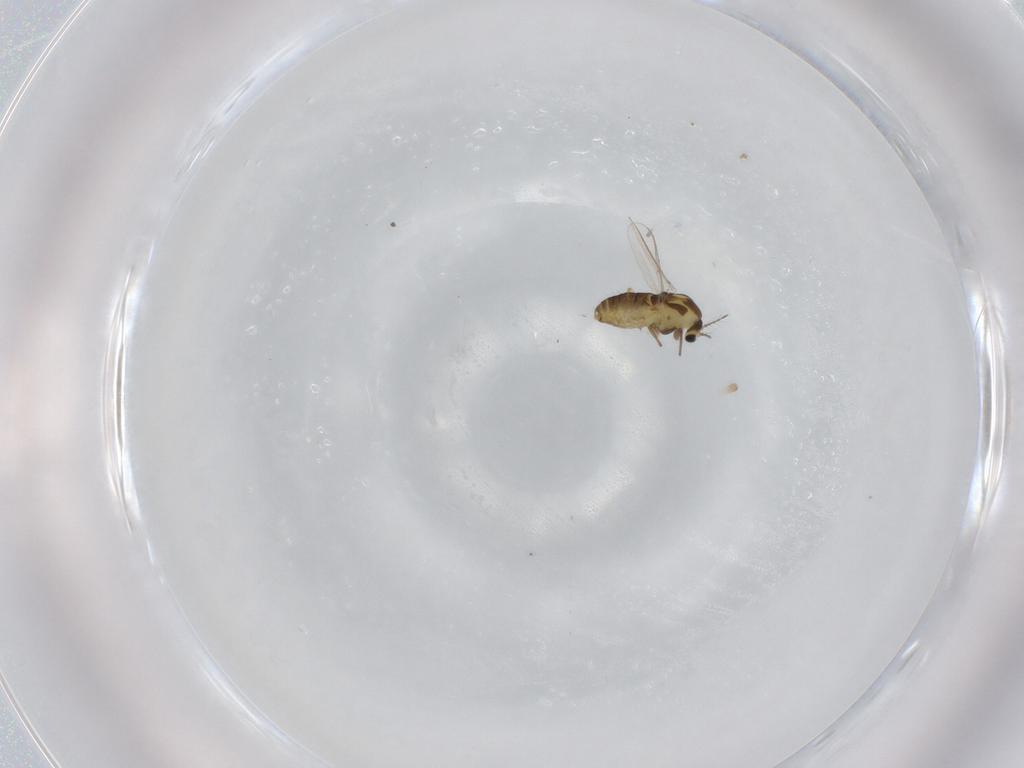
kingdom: Animalia
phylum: Arthropoda
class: Insecta
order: Diptera
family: Chironomidae
